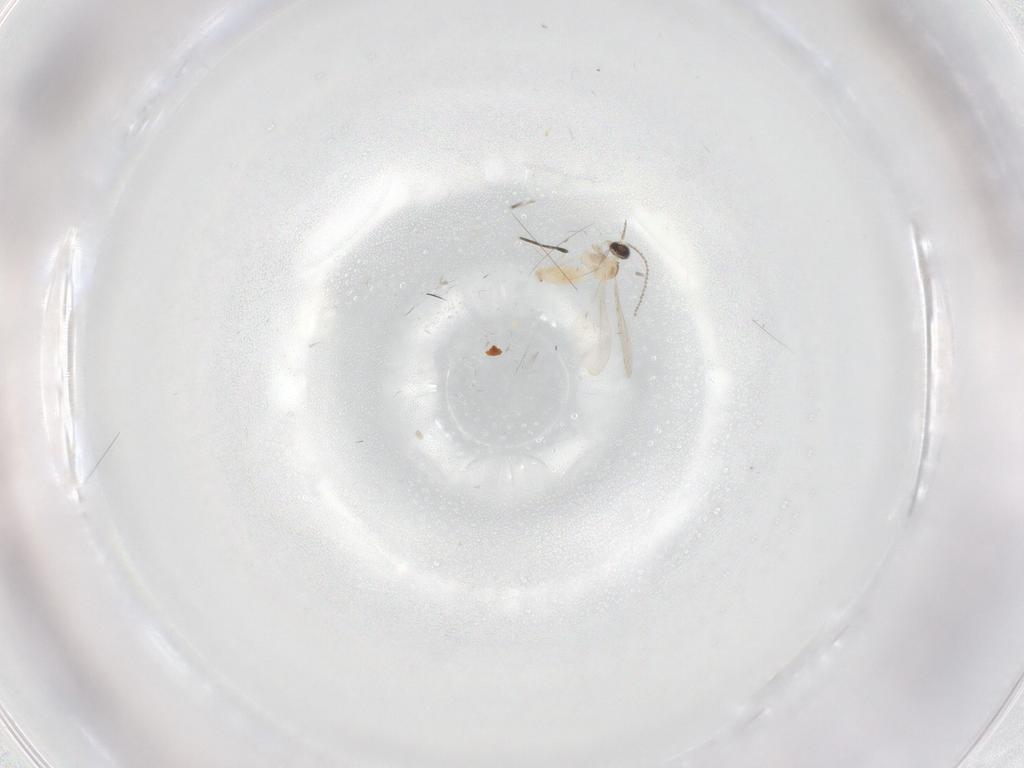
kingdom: Animalia
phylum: Arthropoda
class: Insecta
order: Diptera
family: Cecidomyiidae
